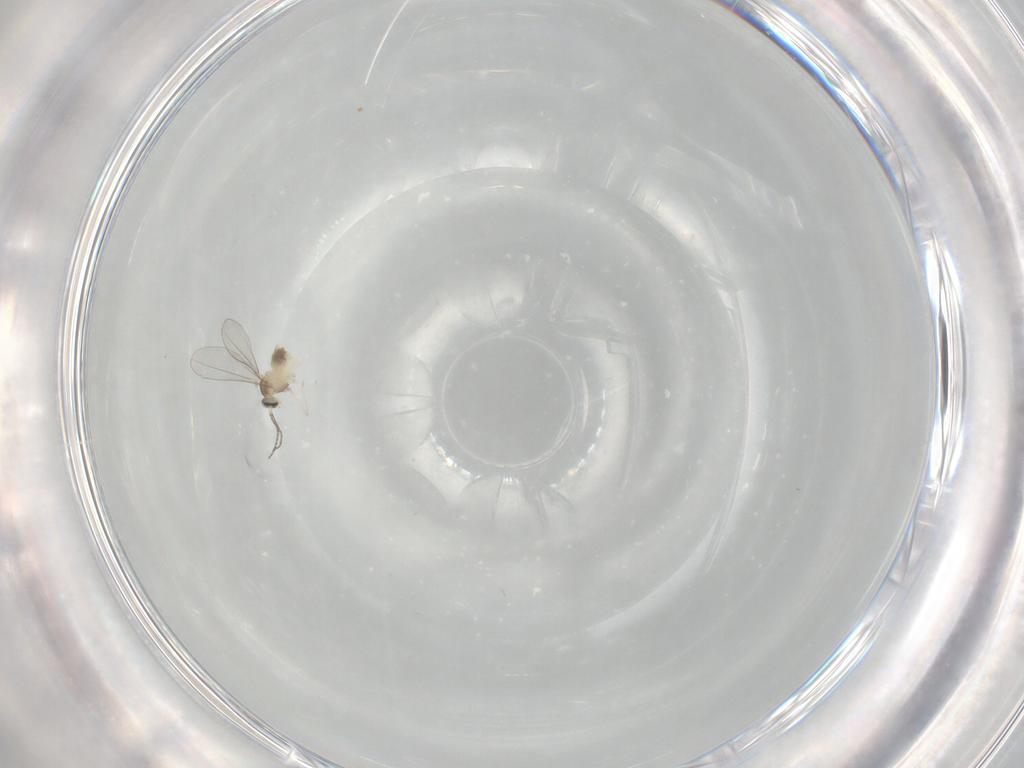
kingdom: Animalia
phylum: Arthropoda
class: Insecta
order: Diptera
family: Cecidomyiidae
